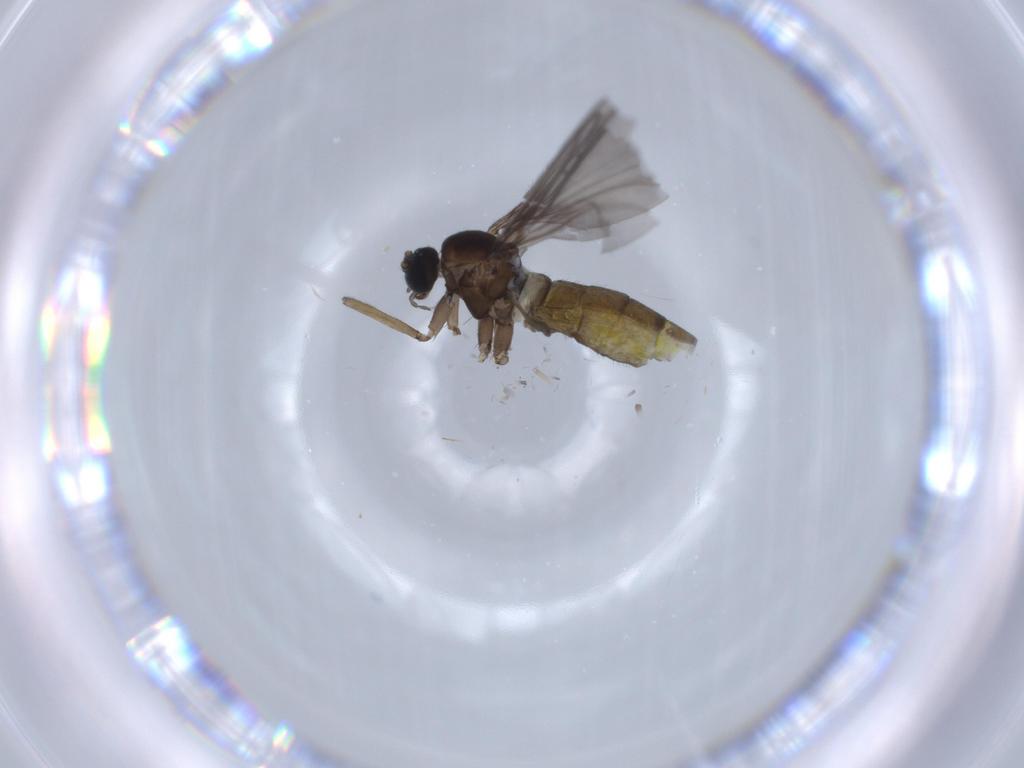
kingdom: Animalia
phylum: Arthropoda
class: Insecta
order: Diptera
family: Sciaridae
